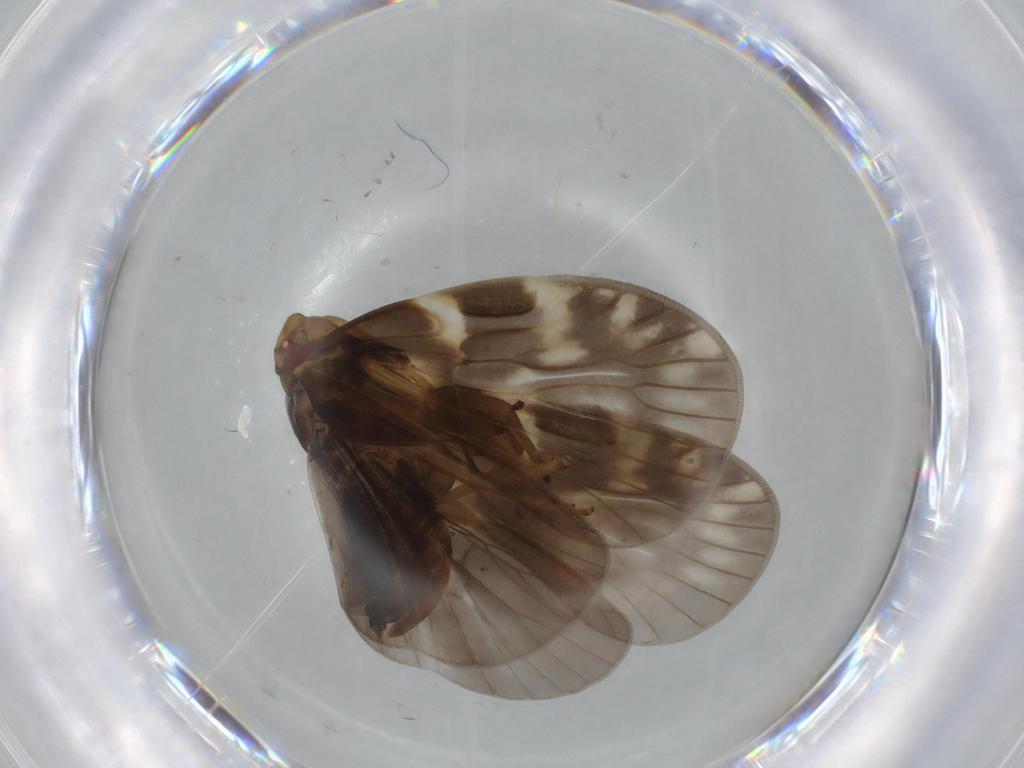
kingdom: Animalia
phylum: Arthropoda
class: Insecta
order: Hemiptera
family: Cixiidae
